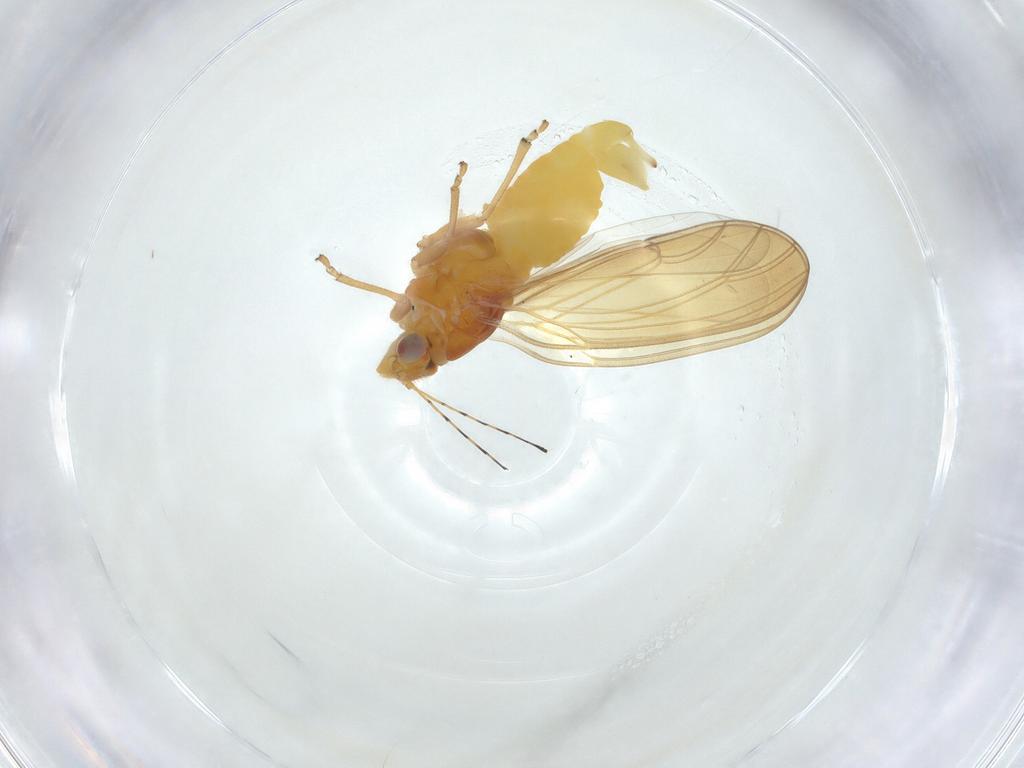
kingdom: Animalia
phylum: Arthropoda
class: Insecta
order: Hemiptera
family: Psylloidea_incertae_sedis
